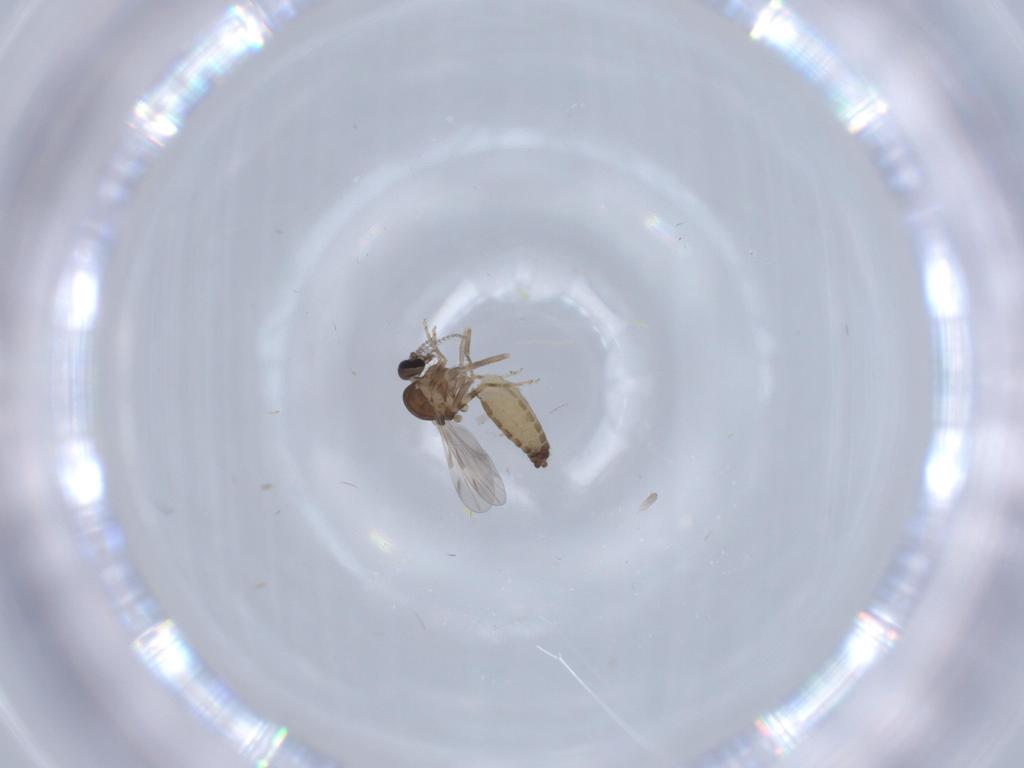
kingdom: Animalia
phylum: Arthropoda
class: Insecta
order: Diptera
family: Ceratopogonidae
